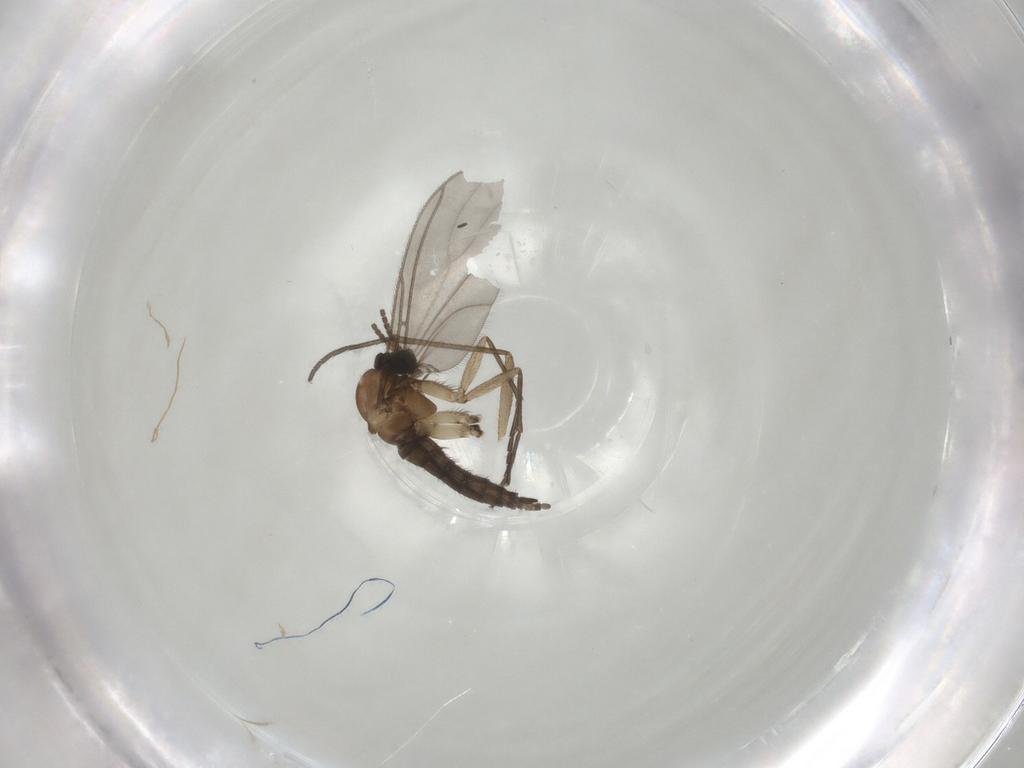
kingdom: Animalia
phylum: Arthropoda
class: Insecta
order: Diptera
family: Sciaridae
